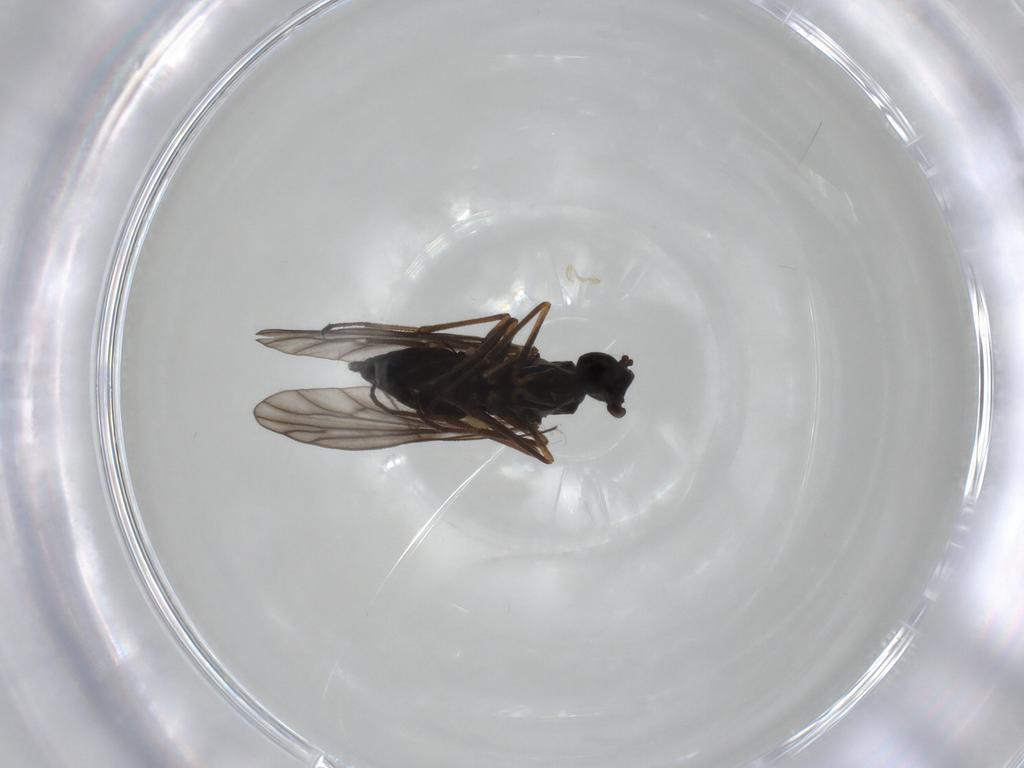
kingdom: Animalia
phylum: Arthropoda
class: Insecta
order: Diptera
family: Empididae
